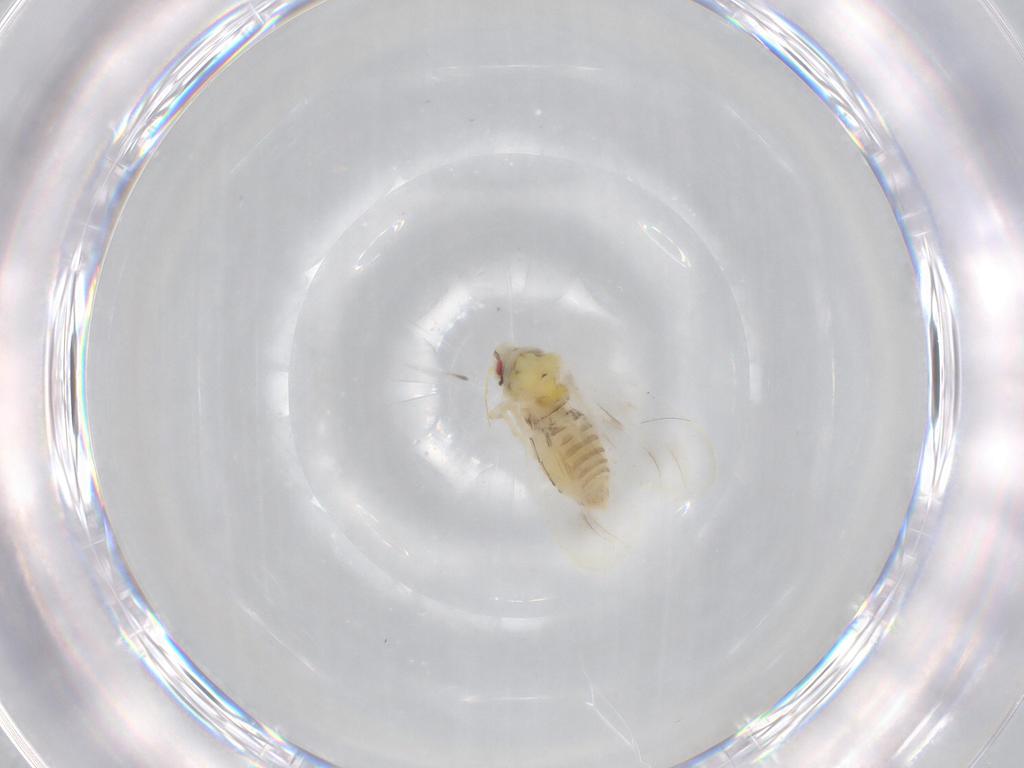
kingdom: Animalia
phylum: Arthropoda
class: Insecta
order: Hemiptera
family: Aleyrodidae
